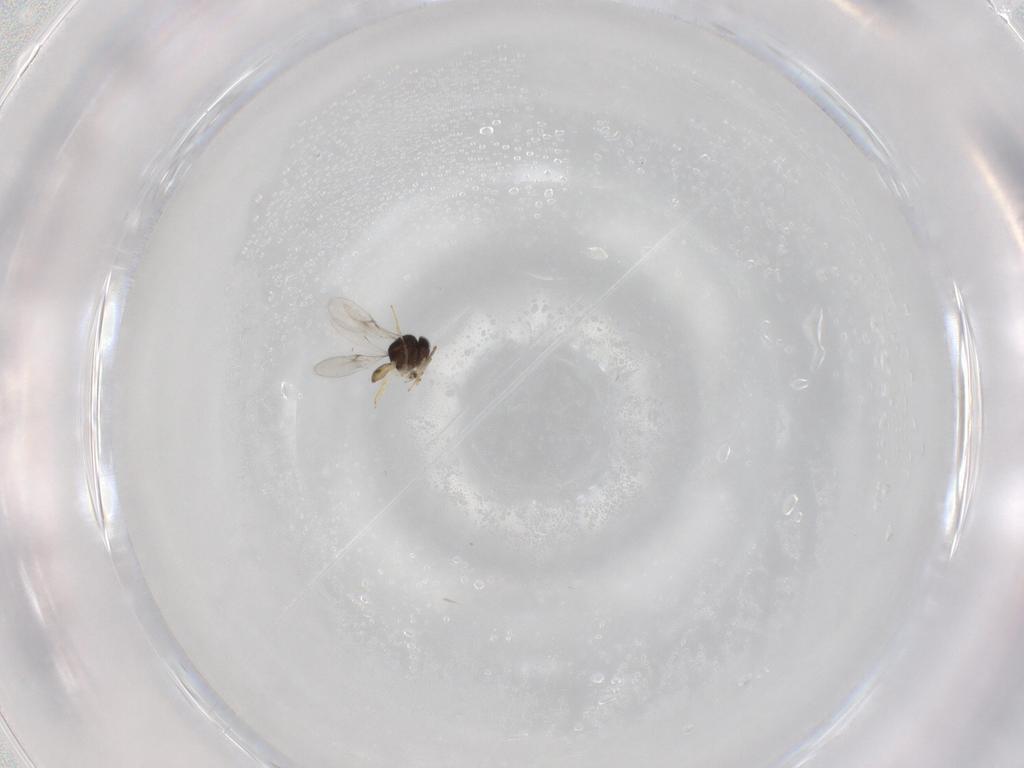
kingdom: Animalia
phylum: Arthropoda
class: Insecta
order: Hymenoptera
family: Scelionidae
